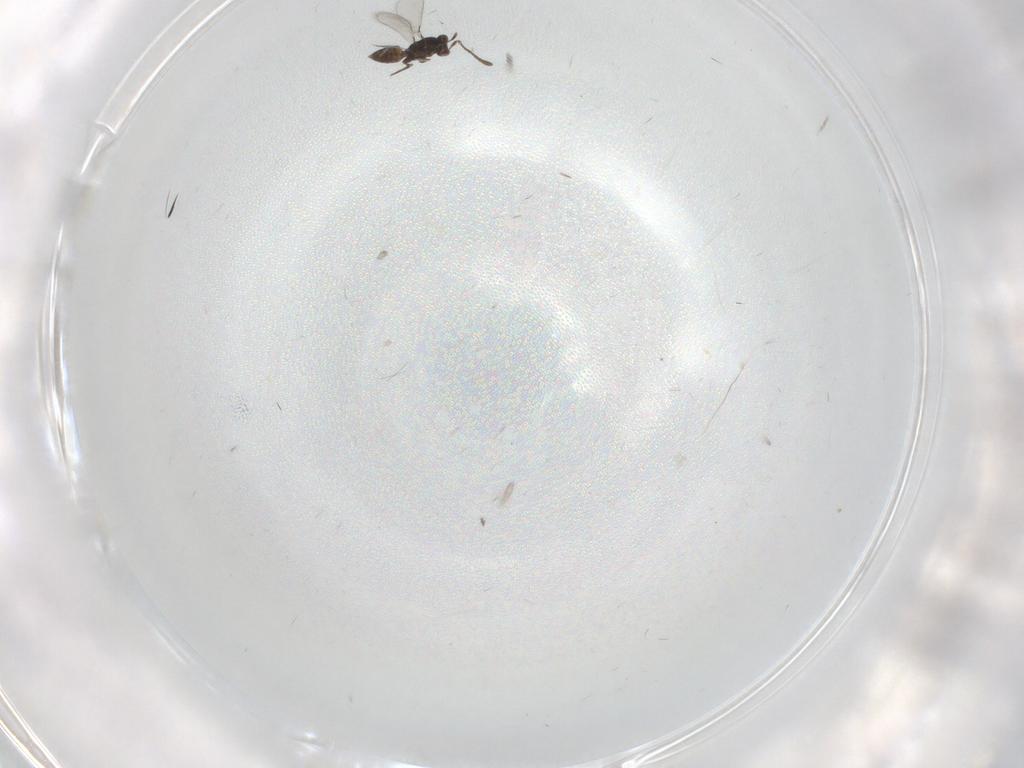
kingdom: Animalia
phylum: Arthropoda
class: Insecta
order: Hymenoptera
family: Mymaridae
